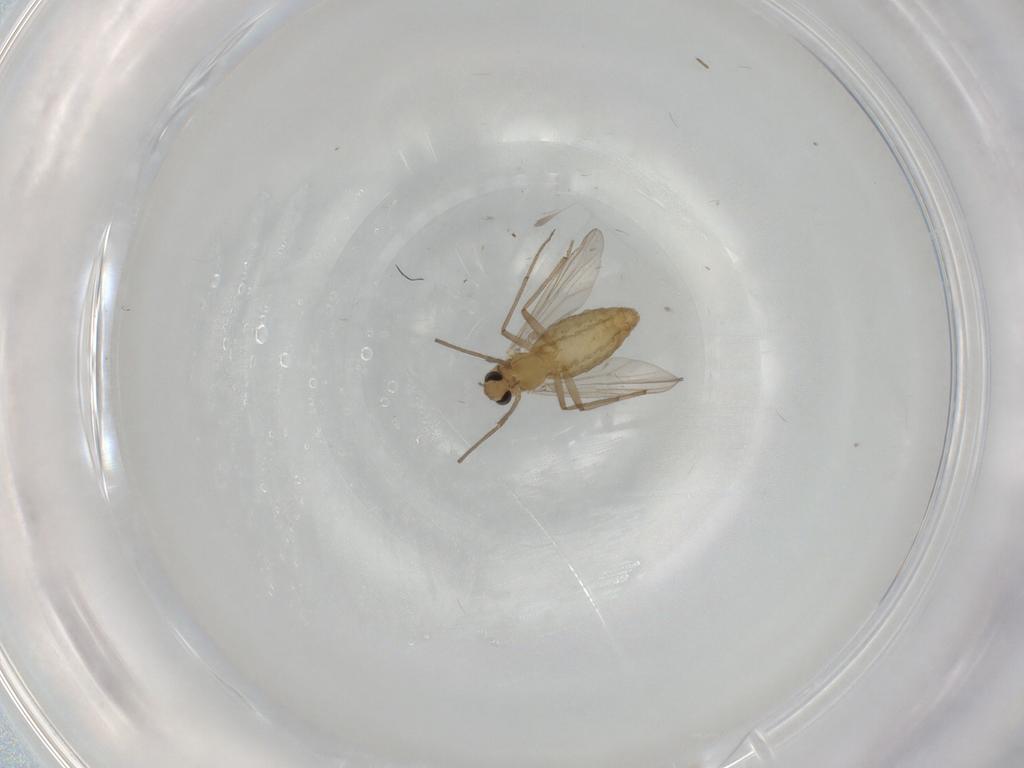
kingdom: Animalia
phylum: Arthropoda
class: Insecta
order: Diptera
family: Chironomidae
